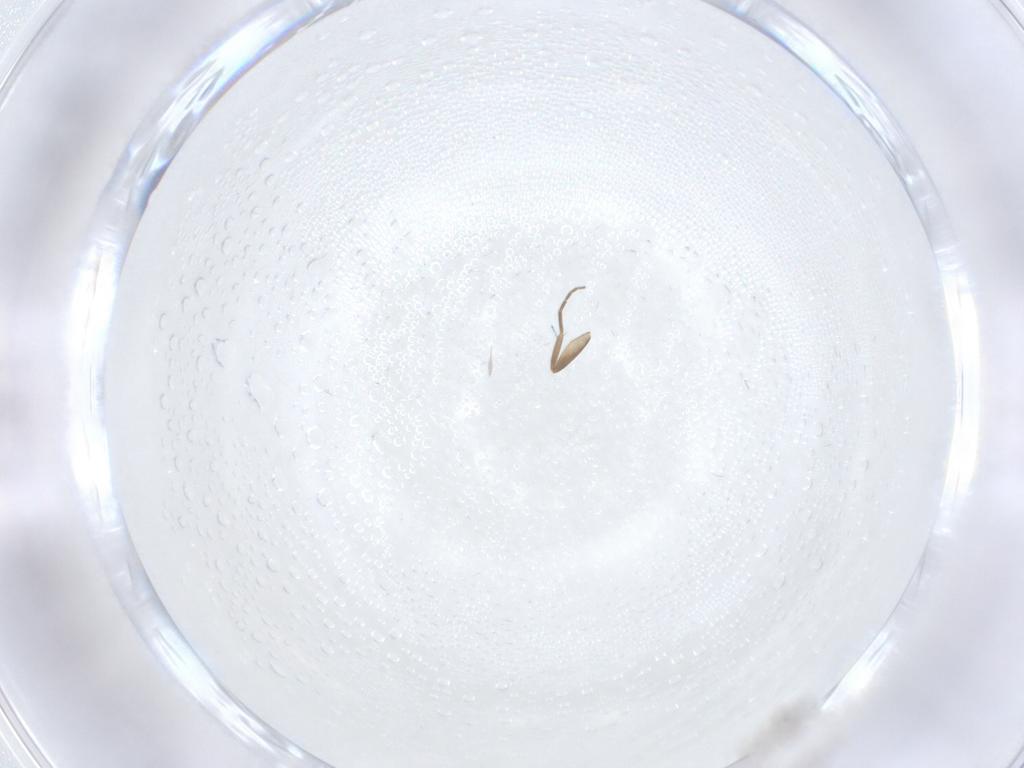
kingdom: Animalia
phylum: Arthropoda
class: Insecta
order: Diptera
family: Phoridae
